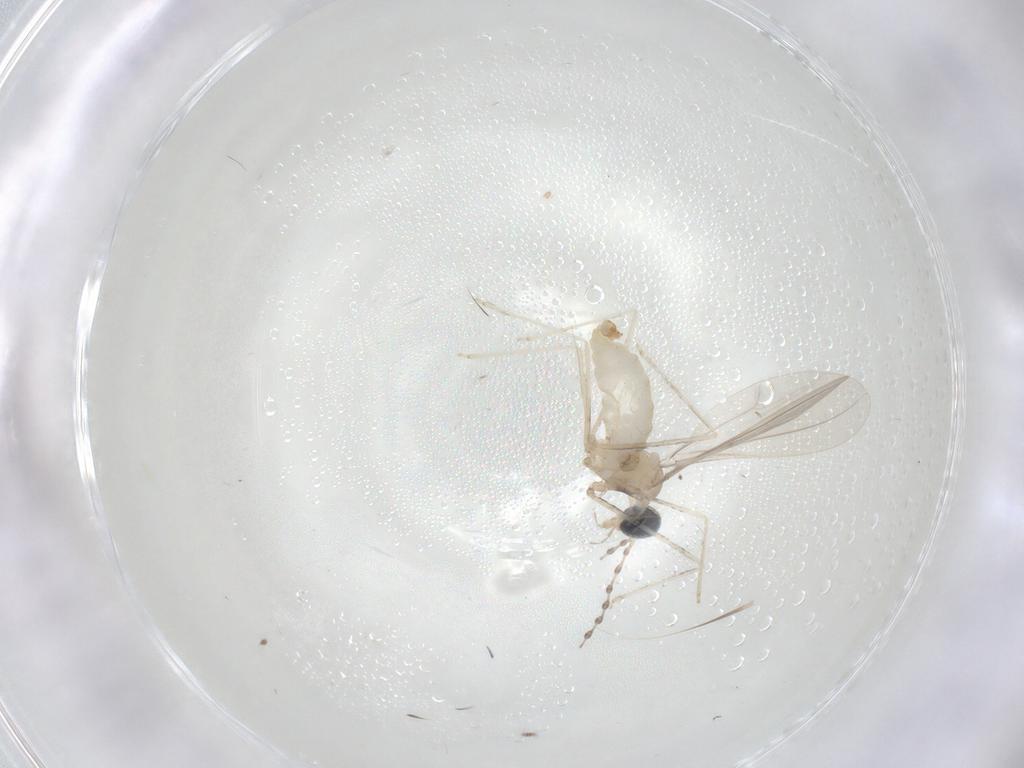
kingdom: Animalia
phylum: Arthropoda
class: Insecta
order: Diptera
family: Cecidomyiidae
